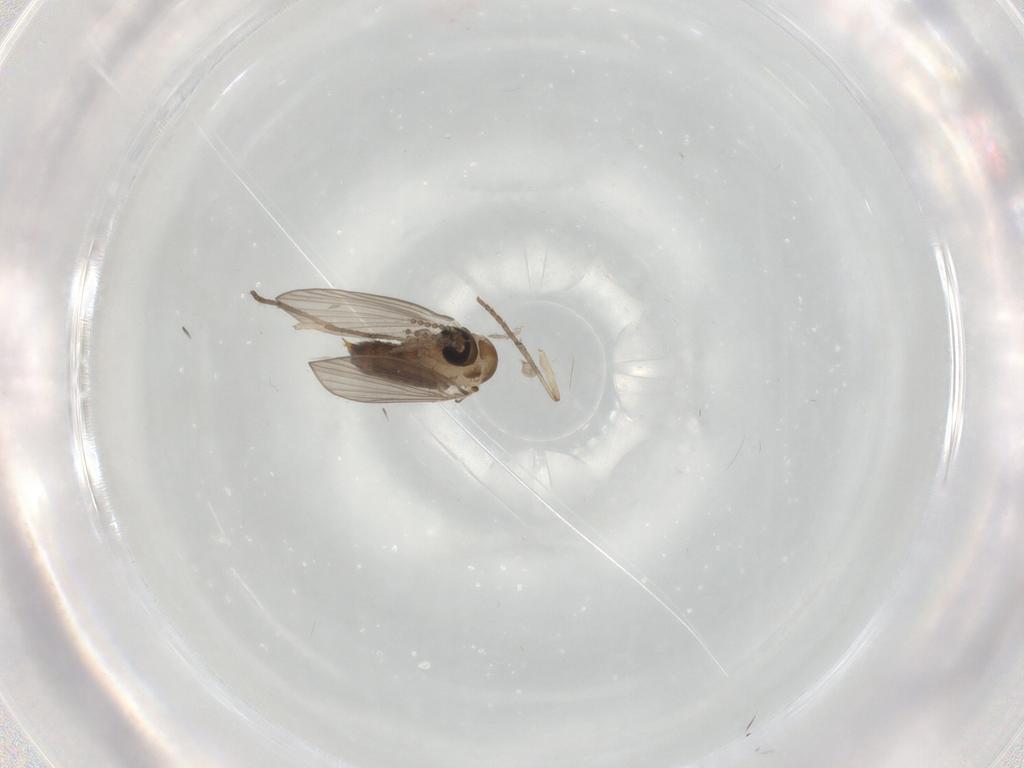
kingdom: Animalia
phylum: Arthropoda
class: Insecta
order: Diptera
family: Psychodidae
